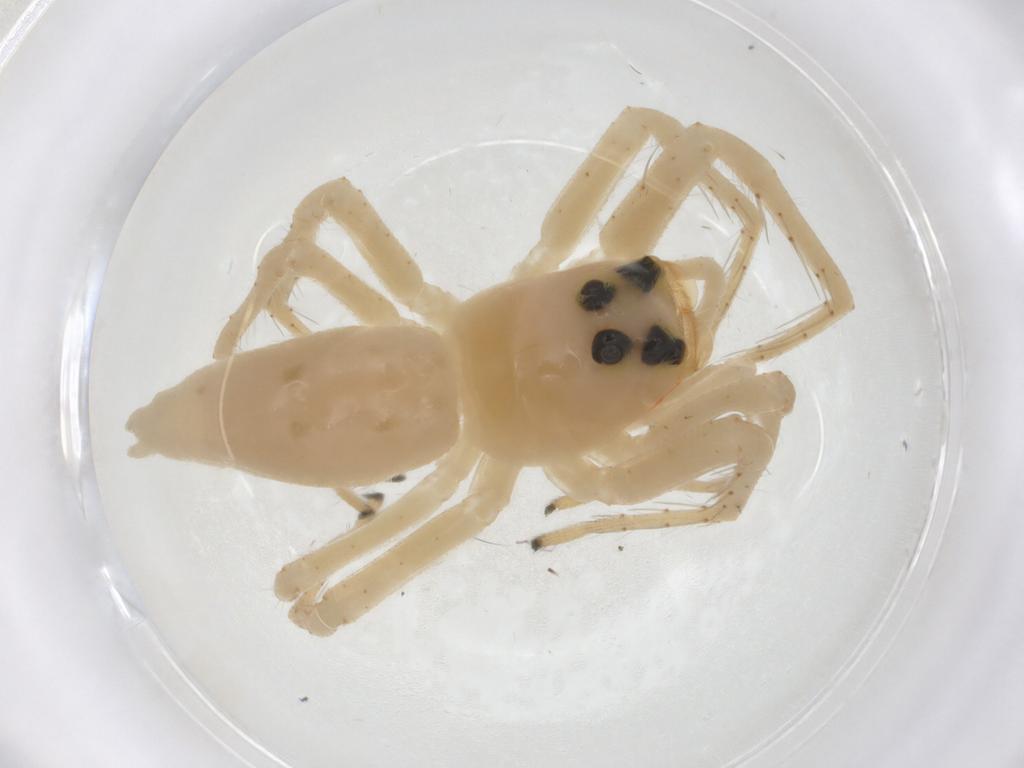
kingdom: Animalia
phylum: Arthropoda
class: Arachnida
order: Araneae
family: Salticidae
